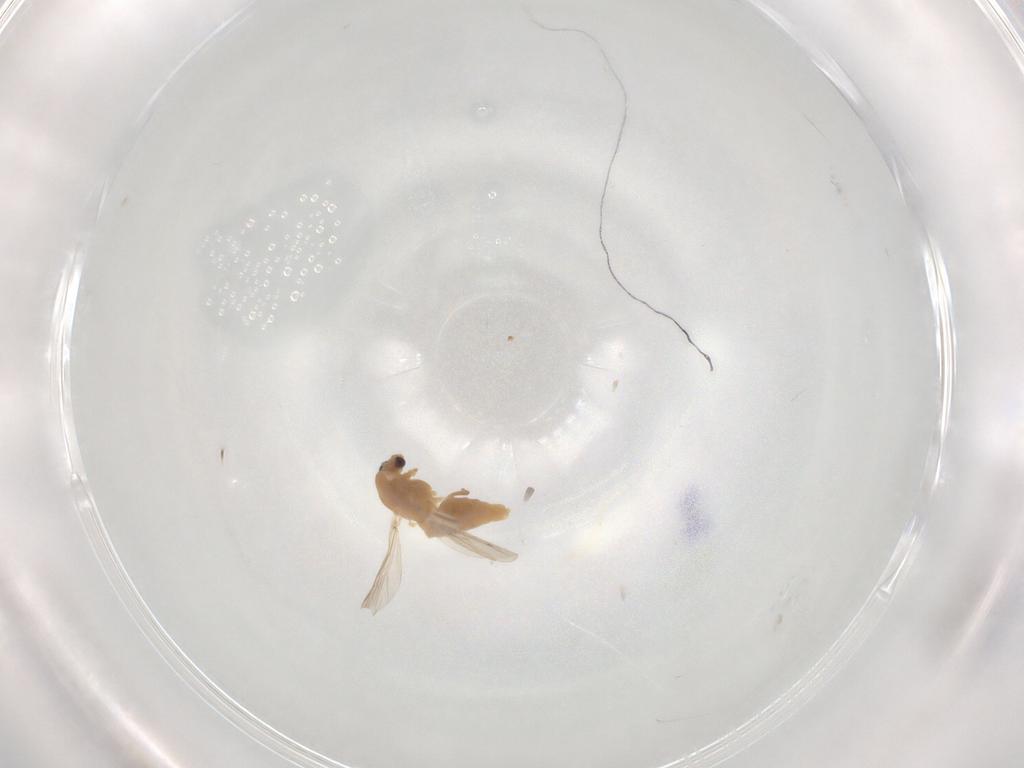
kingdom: Animalia
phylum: Arthropoda
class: Insecta
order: Diptera
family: Chironomidae
